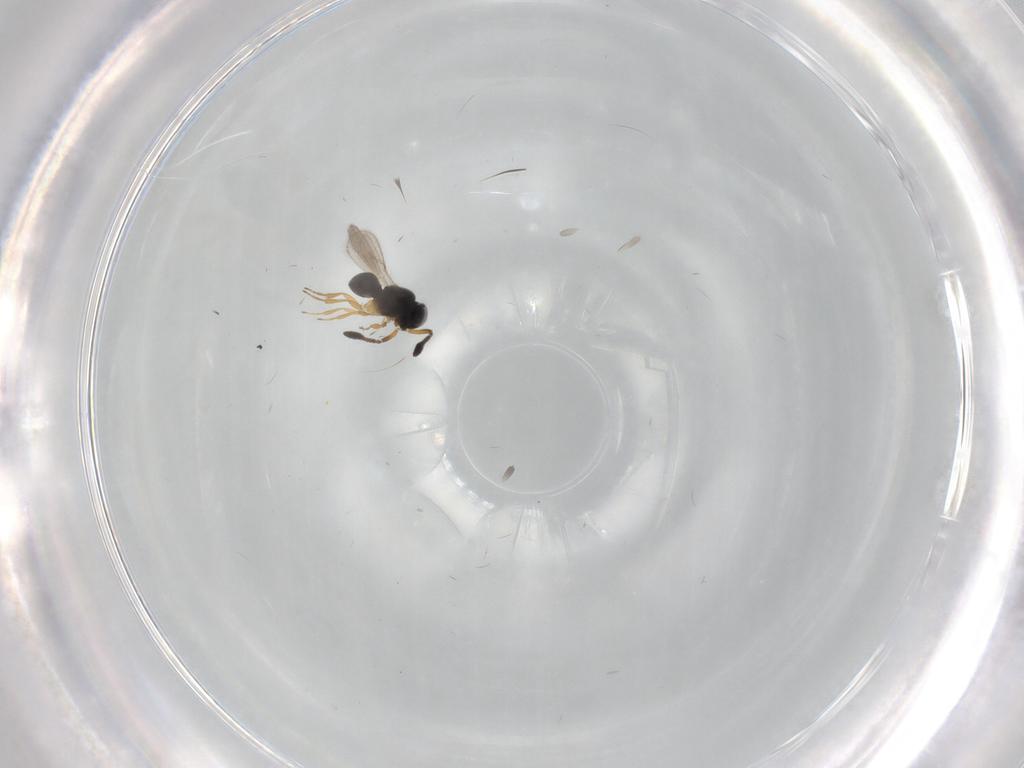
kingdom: Animalia
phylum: Arthropoda
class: Insecta
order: Hymenoptera
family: Scelionidae
